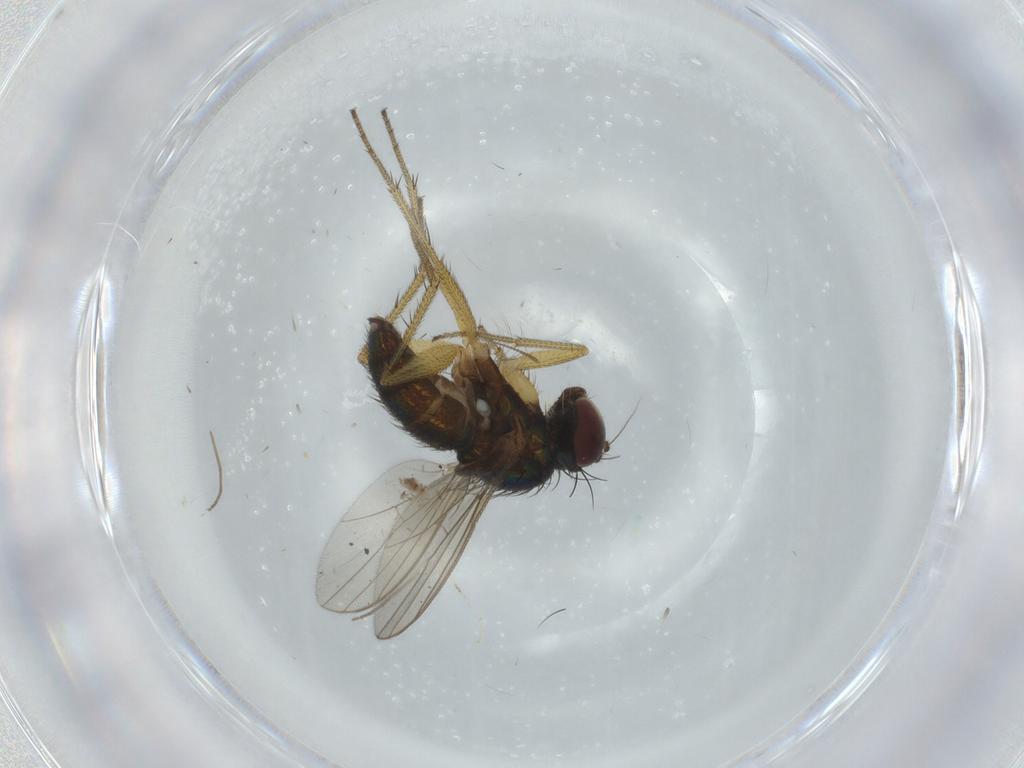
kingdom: Animalia
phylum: Arthropoda
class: Insecta
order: Diptera
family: Dolichopodidae
